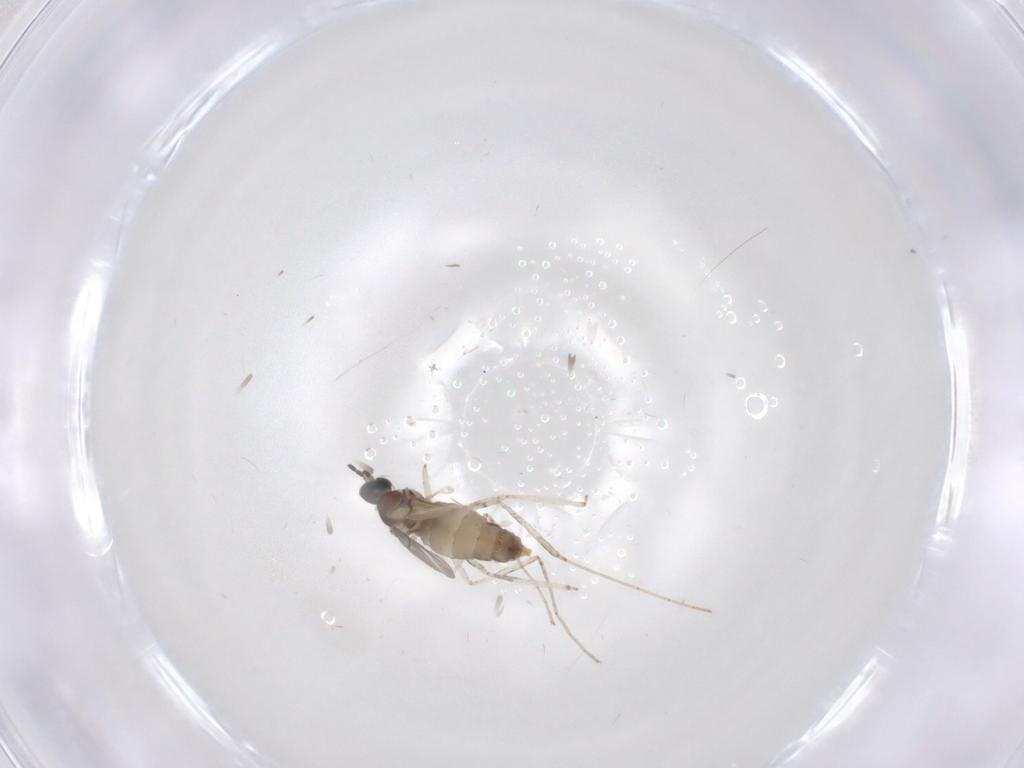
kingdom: Animalia
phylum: Arthropoda
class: Insecta
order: Diptera
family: Cecidomyiidae
